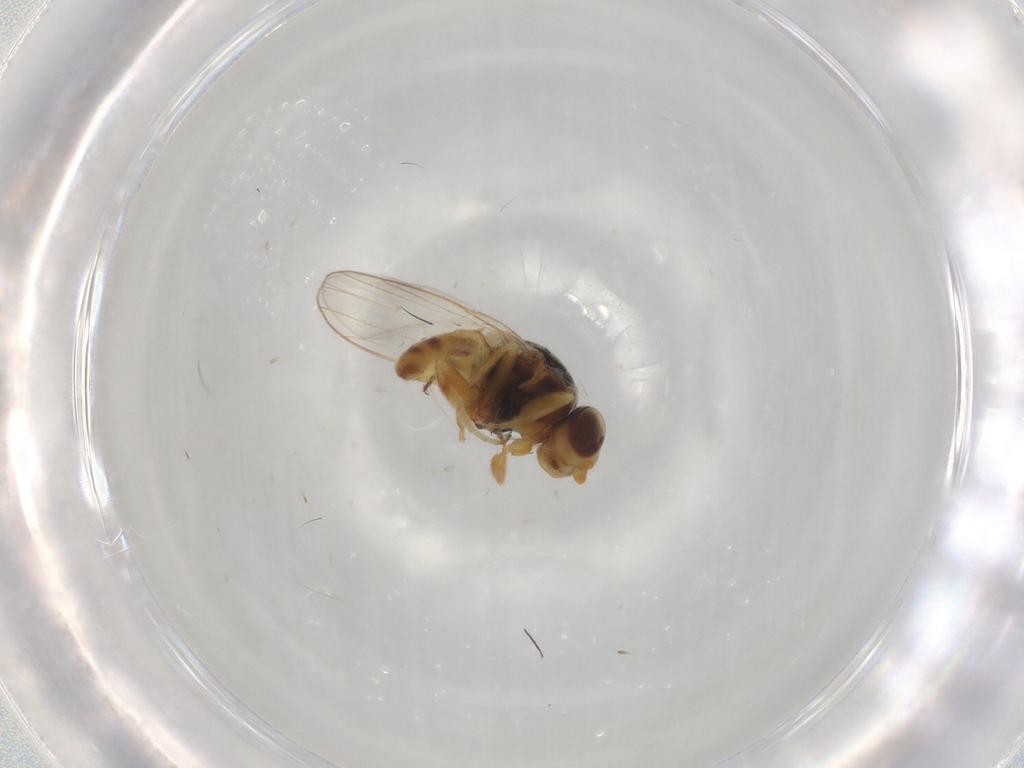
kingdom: Animalia
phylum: Arthropoda
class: Insecta
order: Diptera
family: Chloropidae
